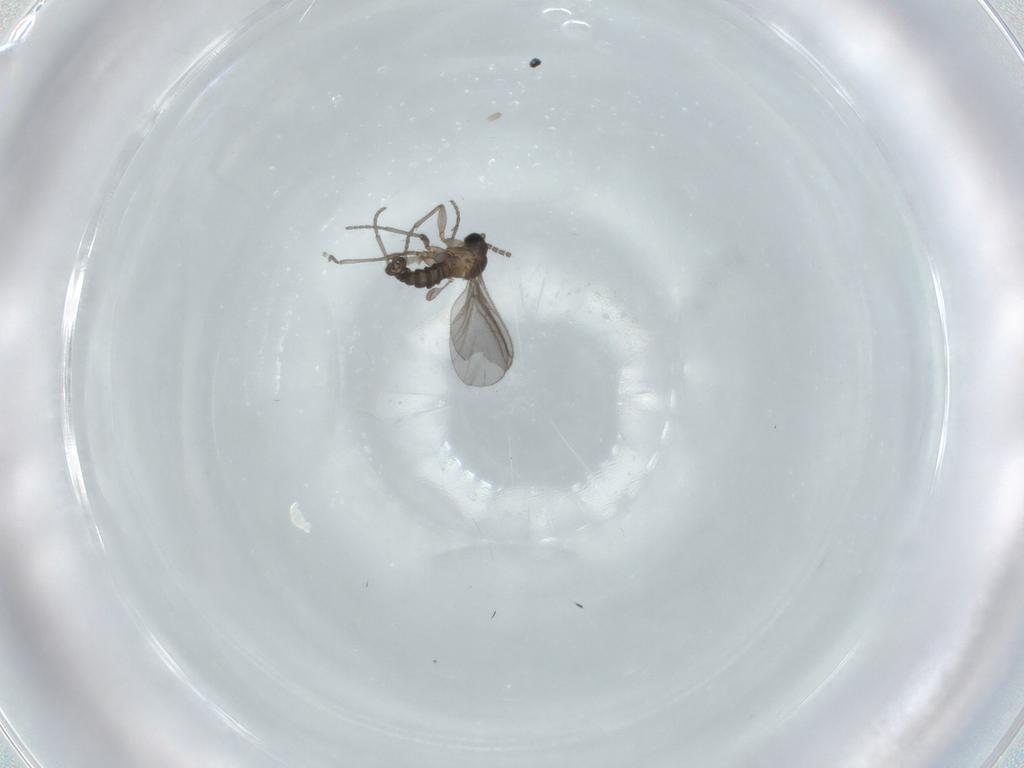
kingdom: Animalia
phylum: Arthropoda
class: Insecta
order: Diptera
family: Sciaridae
